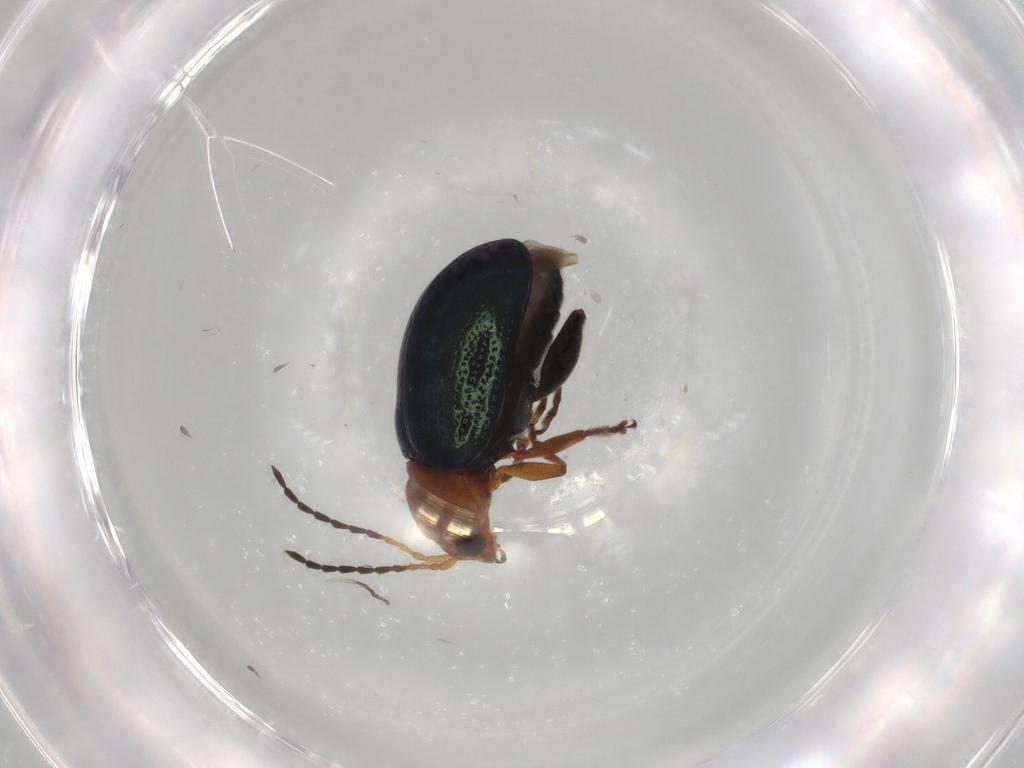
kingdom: Animalia
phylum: Arthropoda
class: Insecta
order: Coleoptera
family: Chrysomelidae
